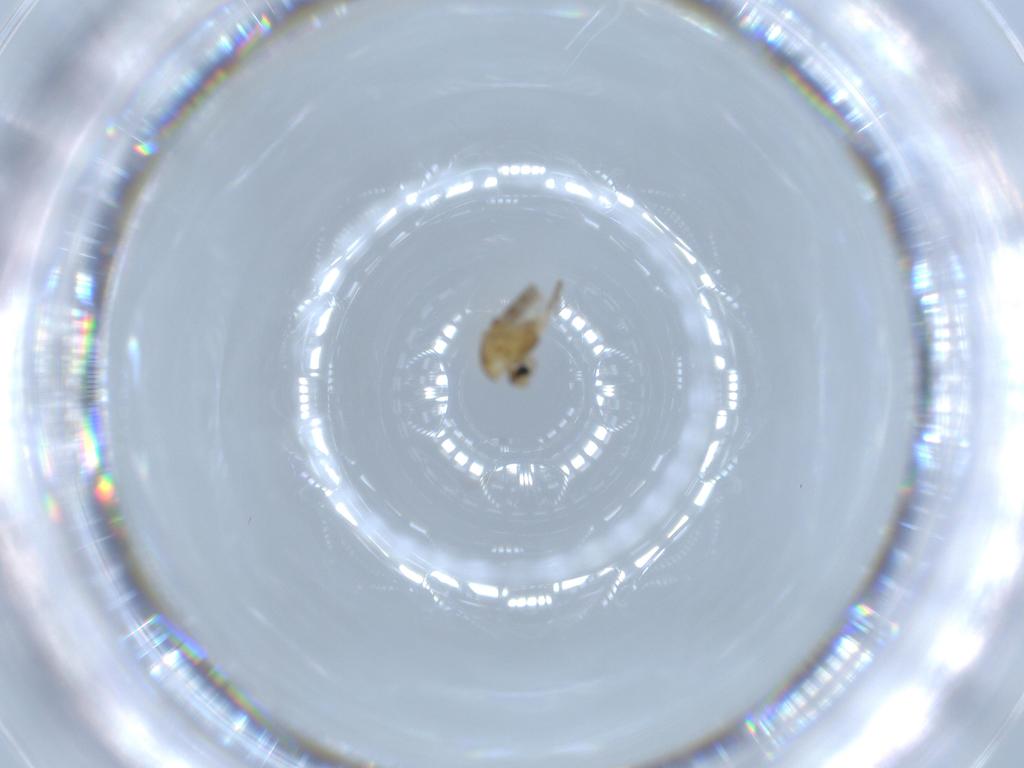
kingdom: Animalia
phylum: Arthropoda
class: Insecta
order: Diptera
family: Chironomidae
